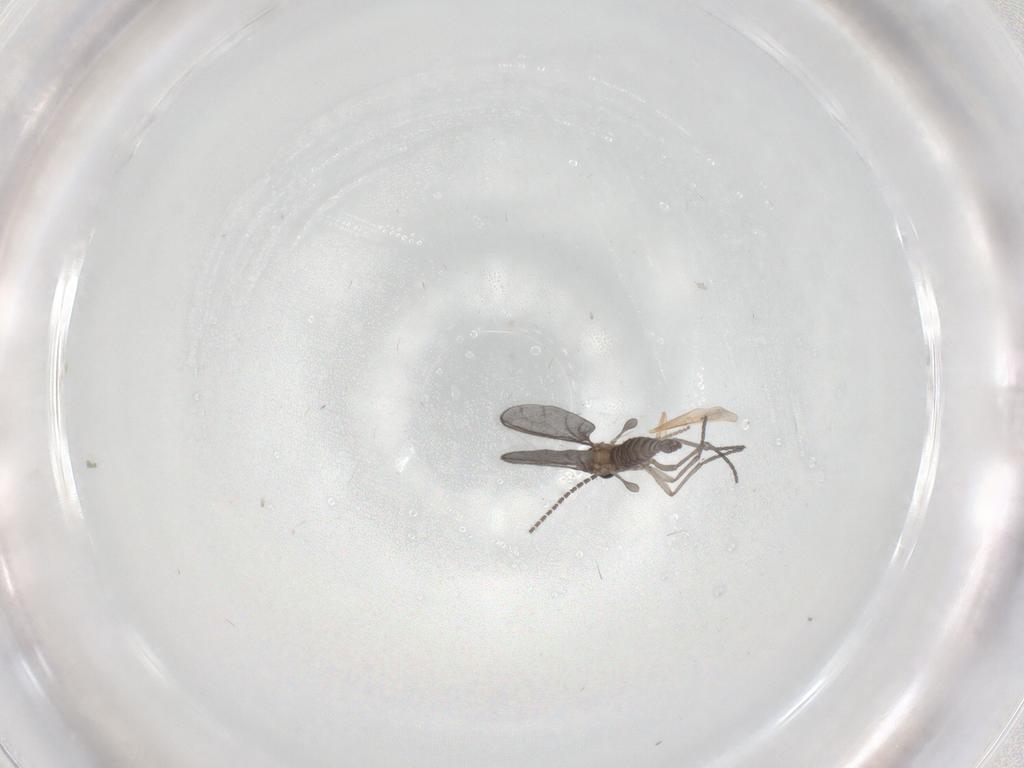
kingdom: Animalia
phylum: Arthropoda
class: Insecta
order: Diptera
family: Sciaridae
